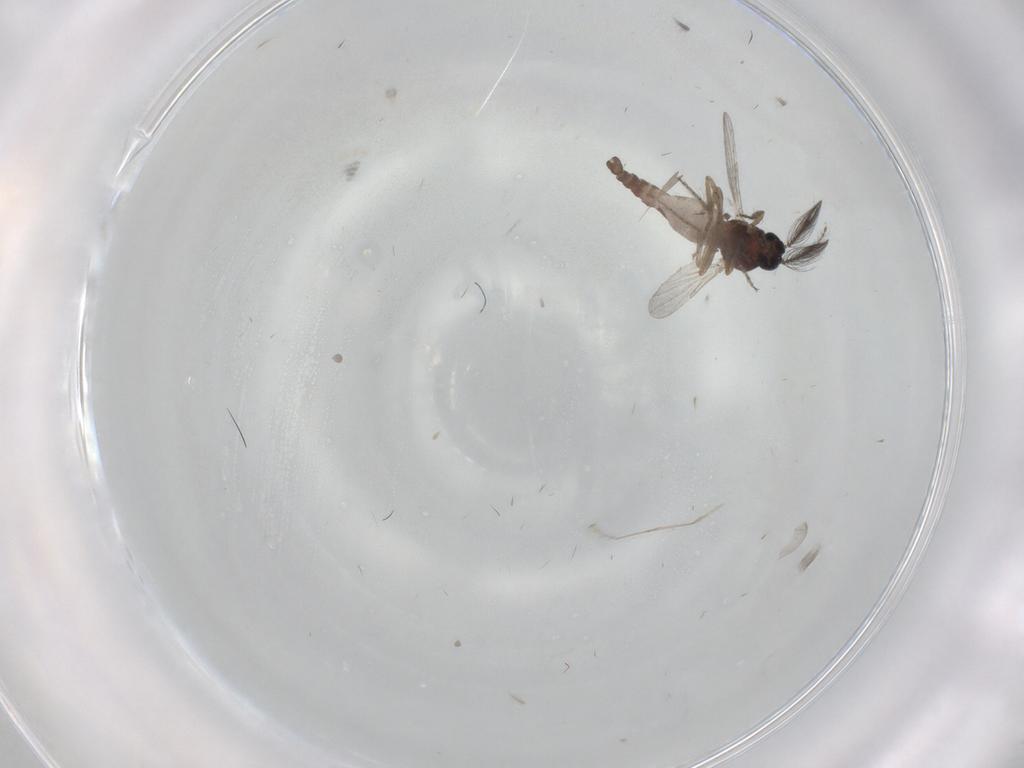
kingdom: Animalia
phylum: Arthropoda
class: Insecta
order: Diptera
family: Ceratopogonidae
